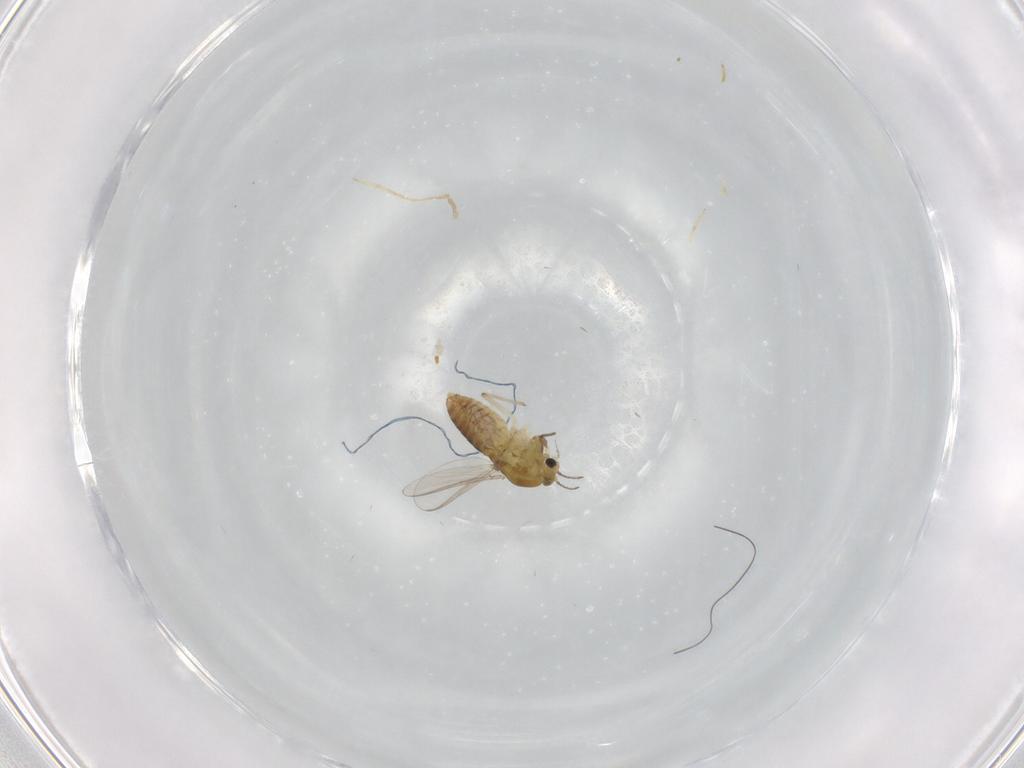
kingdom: Animalia
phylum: Arthropoda
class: Insecta
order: Diptera
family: Chironomidae
